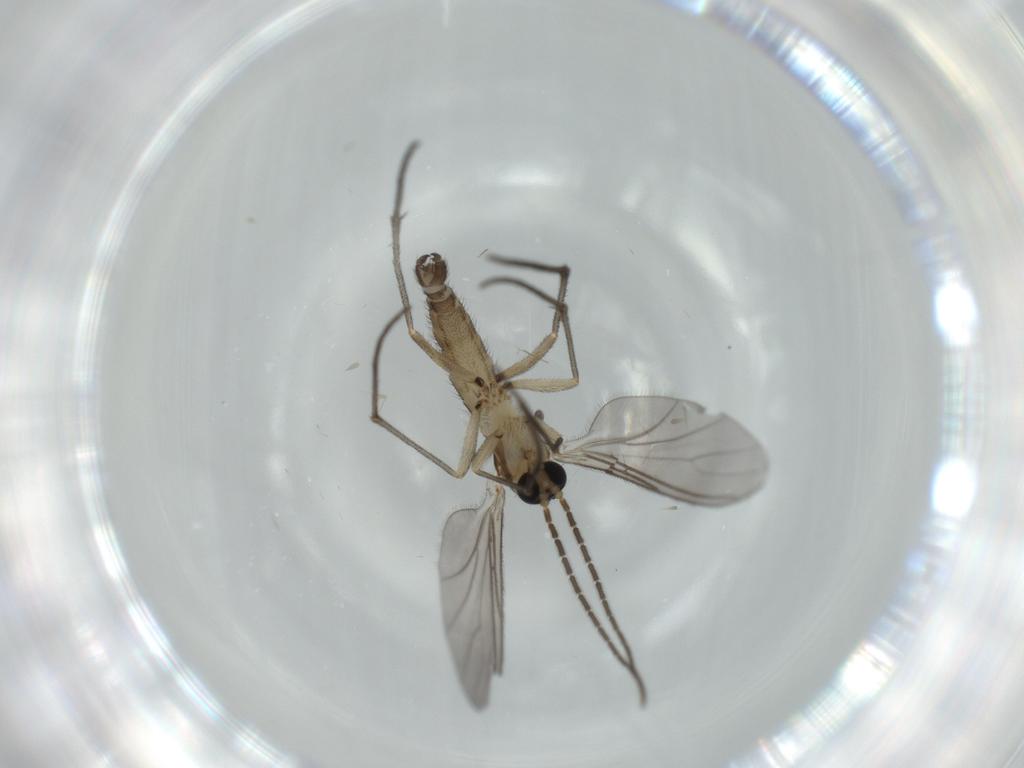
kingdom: Animalia
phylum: Arthropoda
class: Insecta
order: Diptera
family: Sciaridae
